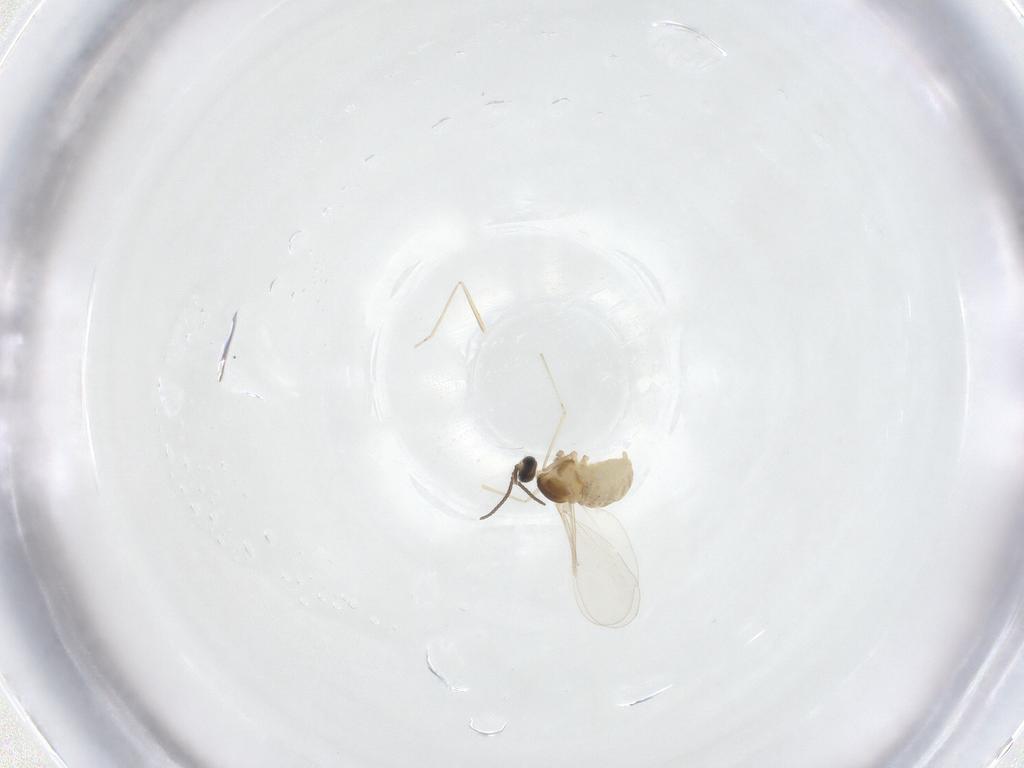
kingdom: Animalia
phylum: Arthropoda
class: Insecta
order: Diptera
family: Cecidomyiidae
